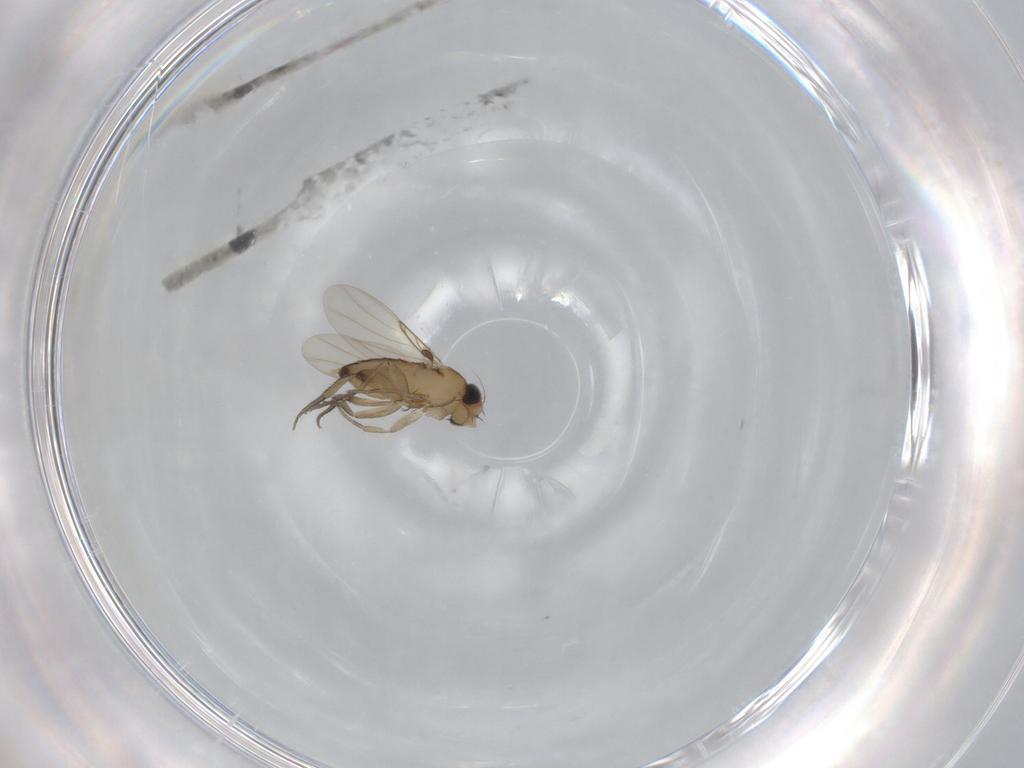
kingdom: Animalia
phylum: Arthropoda
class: Insecta
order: Diptera
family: Phoridae
